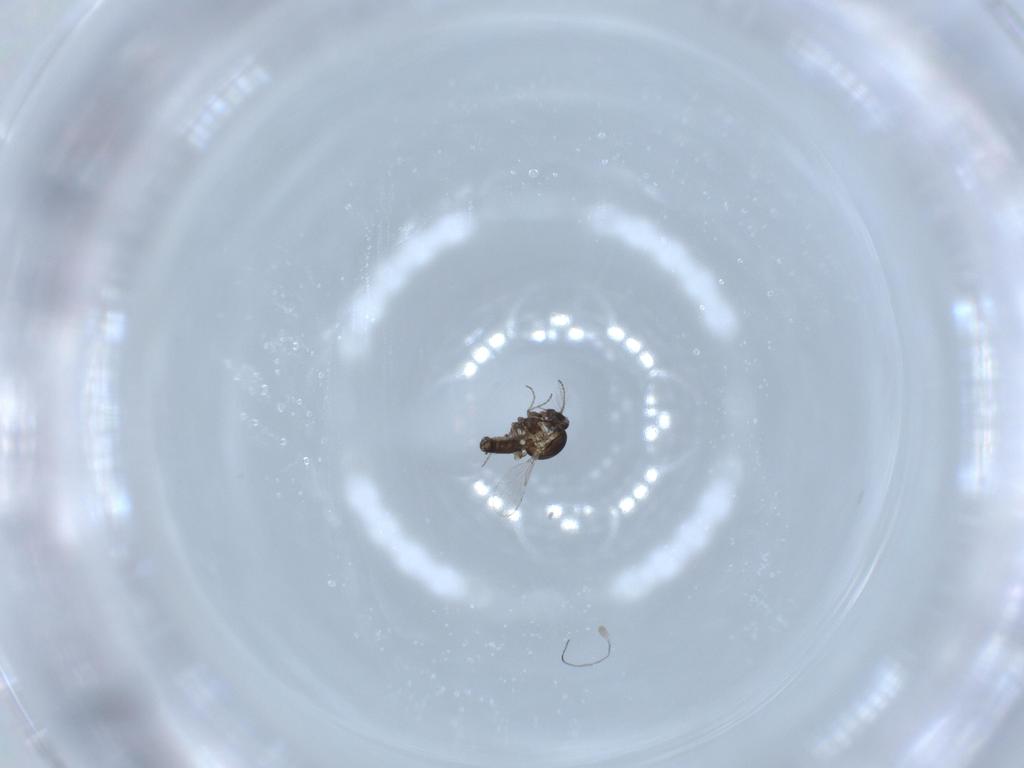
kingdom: Animalia
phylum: Arthropoda
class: Insecta
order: Diptera
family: Ceratopogonidae
